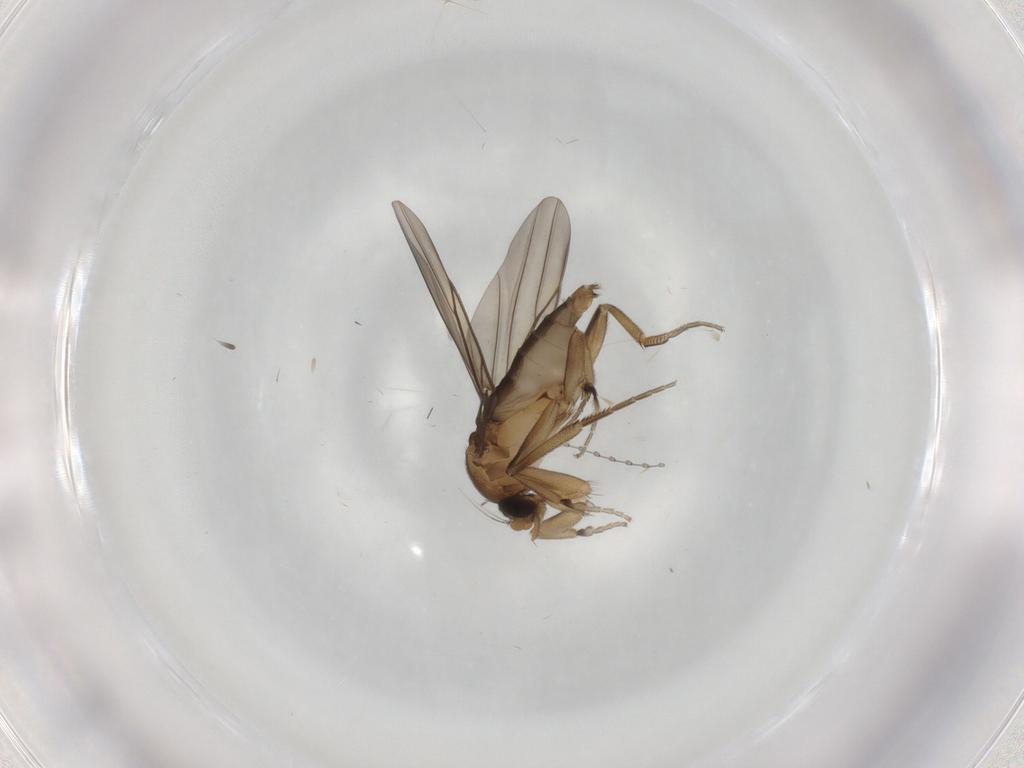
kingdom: Animalia
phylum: Arthropoda
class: Insecta
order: Diptera
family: Phoridae
